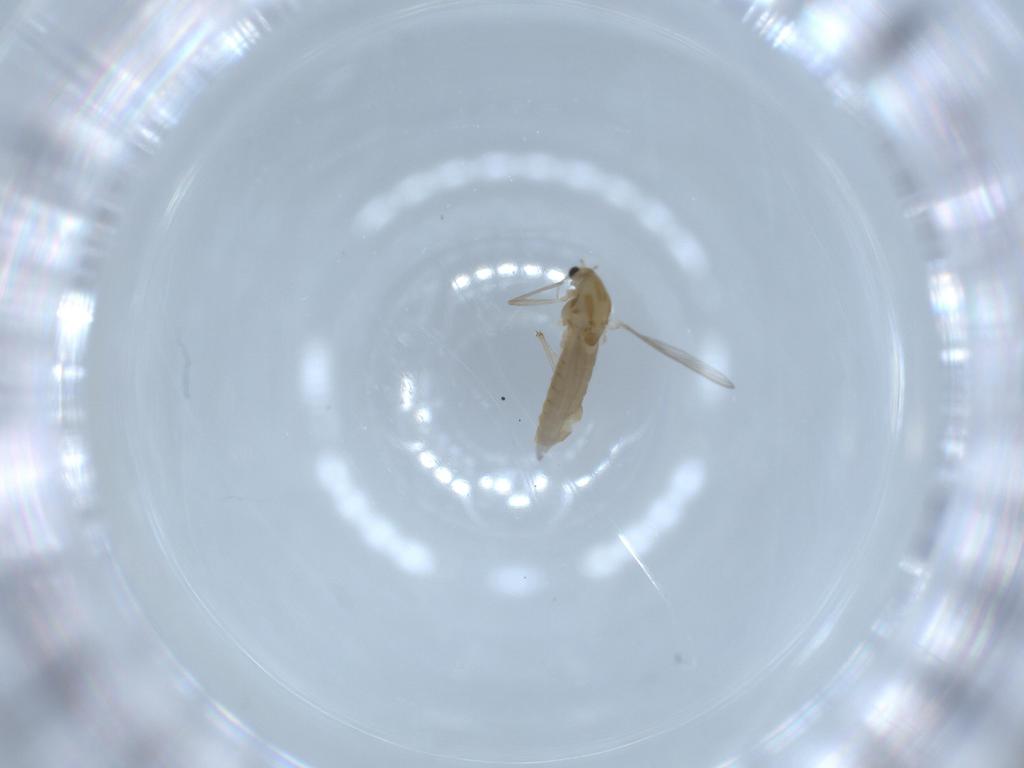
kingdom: Animalia
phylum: Arthropoda
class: Insecta
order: Diptera
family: Chironomidae
